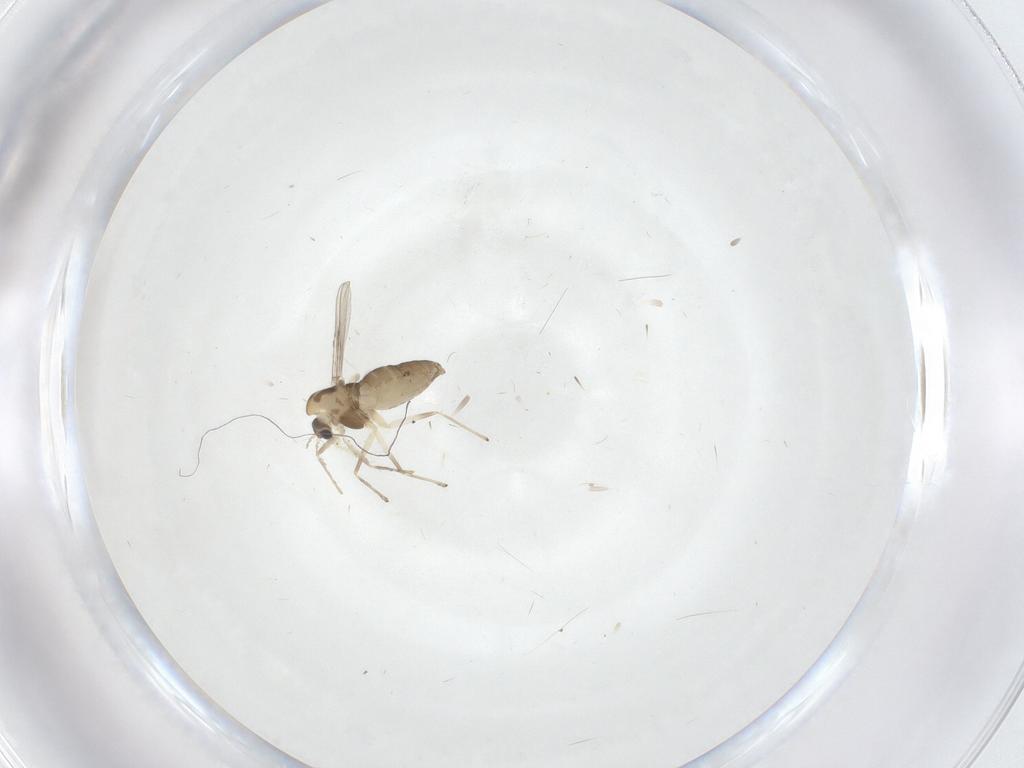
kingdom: Animalia
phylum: Arthropoda
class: Insecta
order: Diptera
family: Chironomidae
